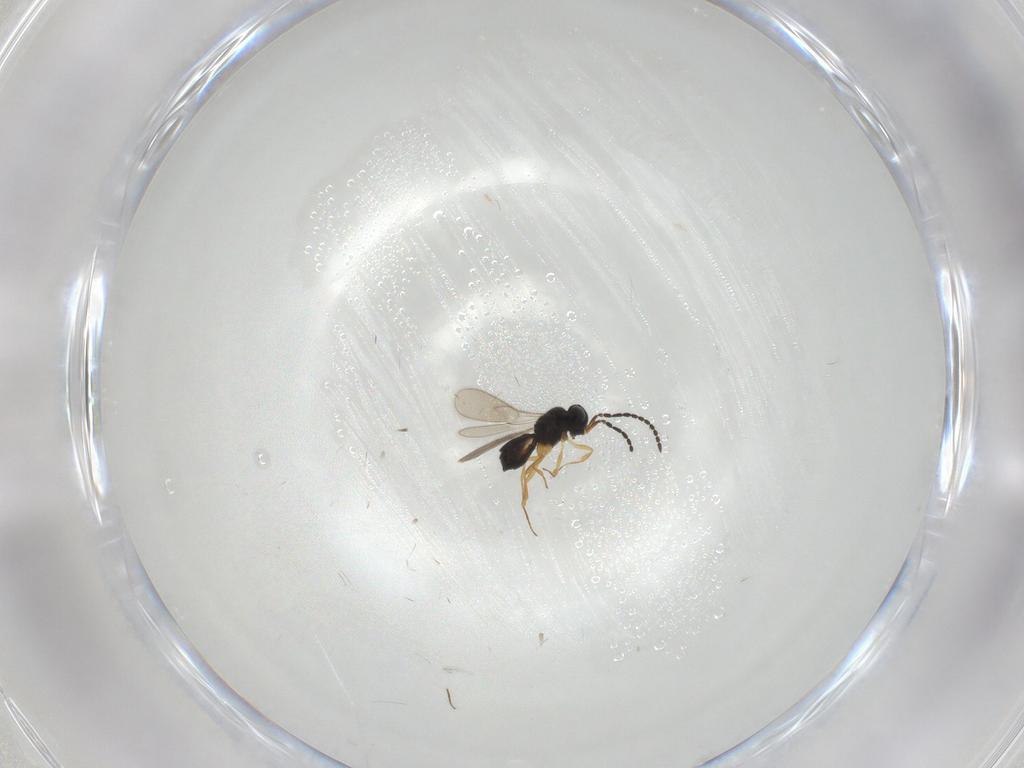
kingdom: Animalia
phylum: Arthropoda
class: Insecta
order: Hymenoptera
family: Scelionidae
